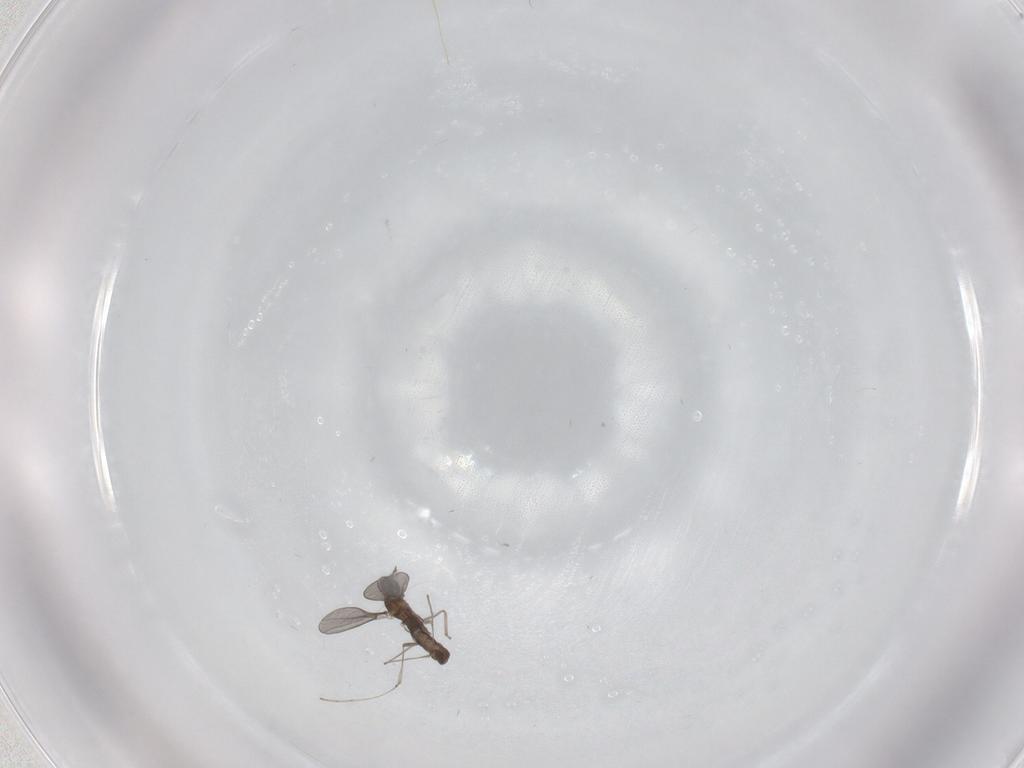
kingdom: Animalia
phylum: Arthropoda
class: Insecta
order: Diptera
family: Cecidomyiidae
